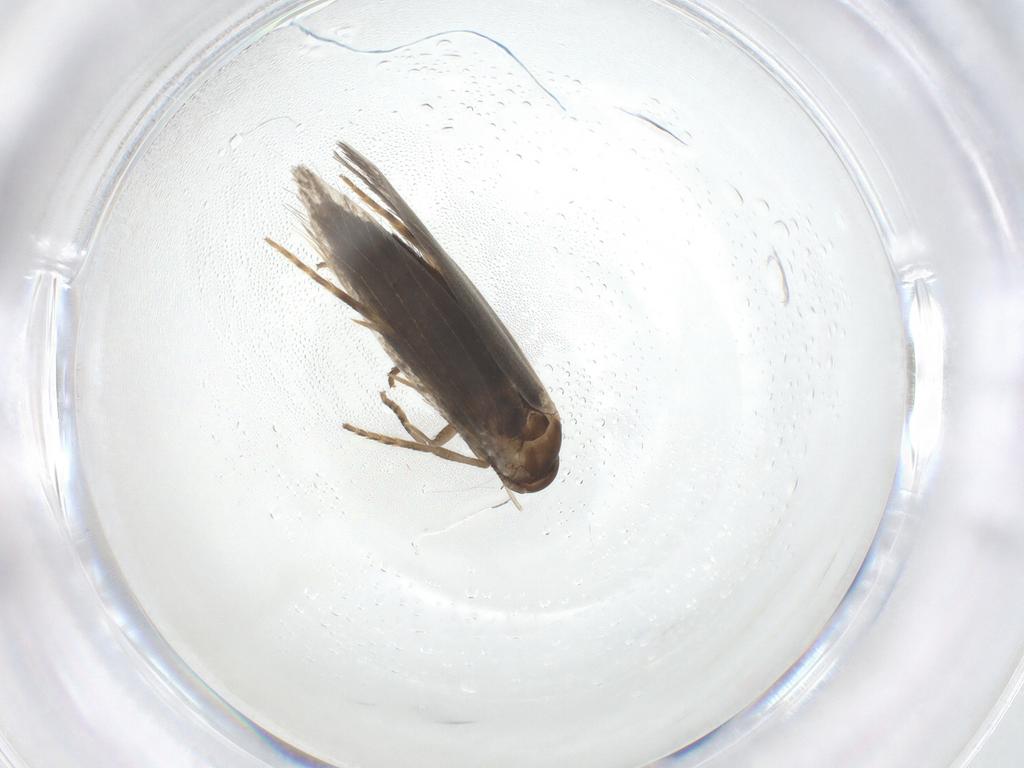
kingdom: Animalia
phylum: Arthropoda
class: Insecta
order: Lepidoptera
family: Elachistidae
